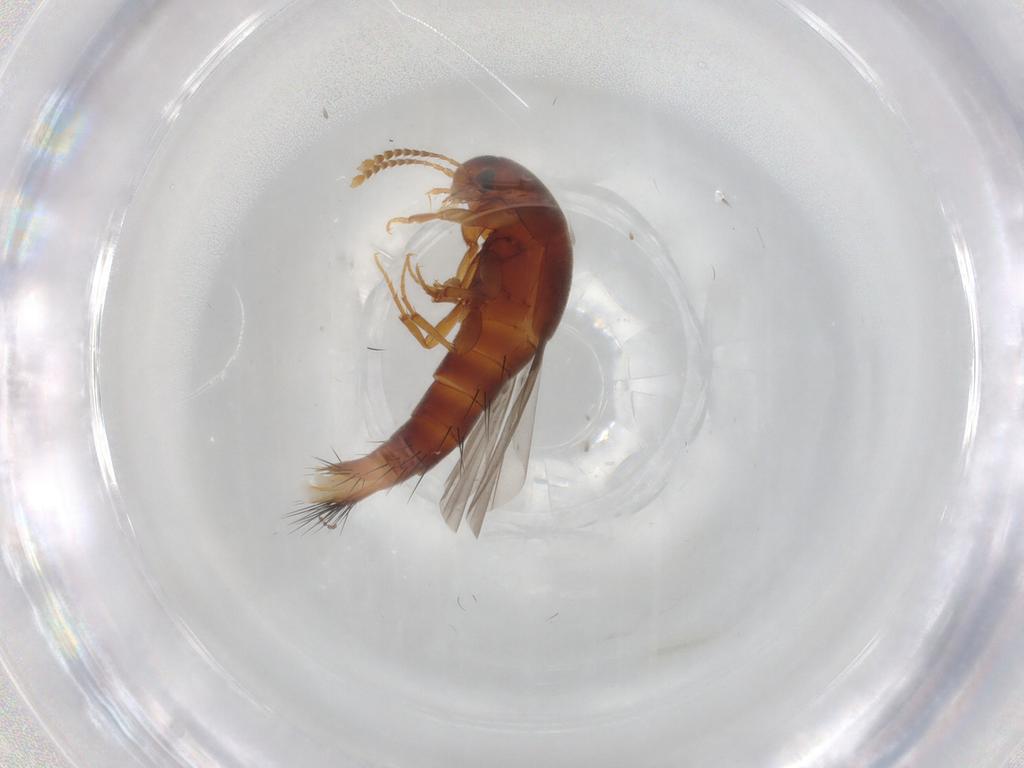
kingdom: Animalia
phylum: Arthropoda
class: Insecta
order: Coleoptera
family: Staphylinidae
